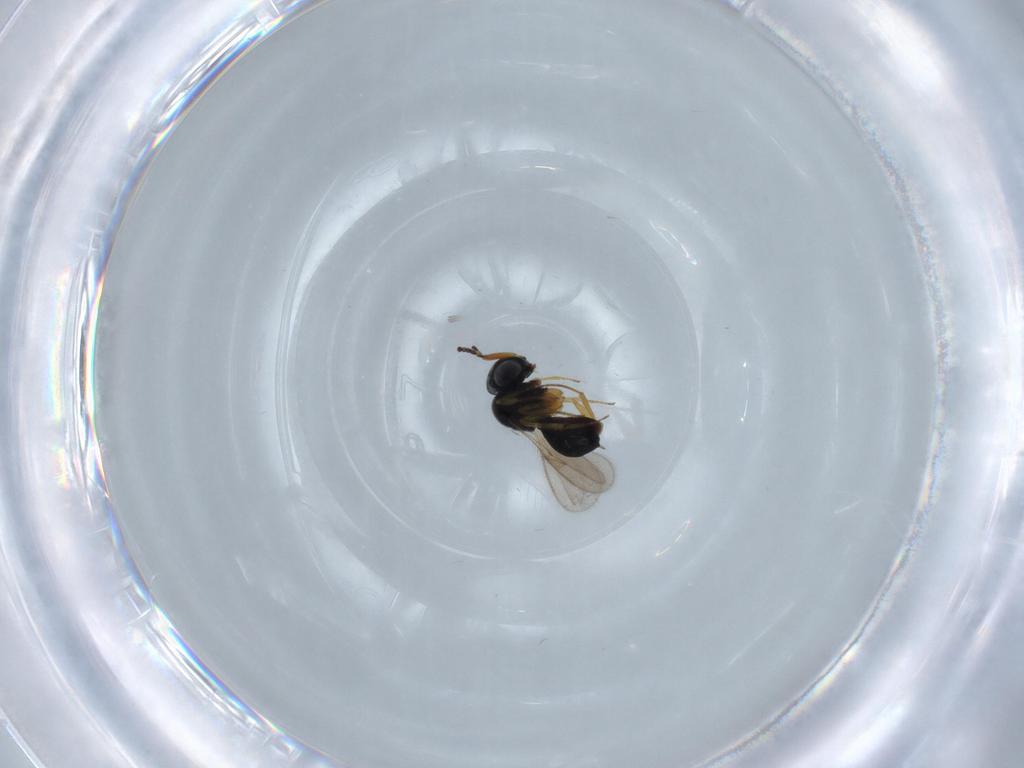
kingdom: Animalia
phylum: Arthropoda
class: Insecta
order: Hymenoptera
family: Scelionidae
